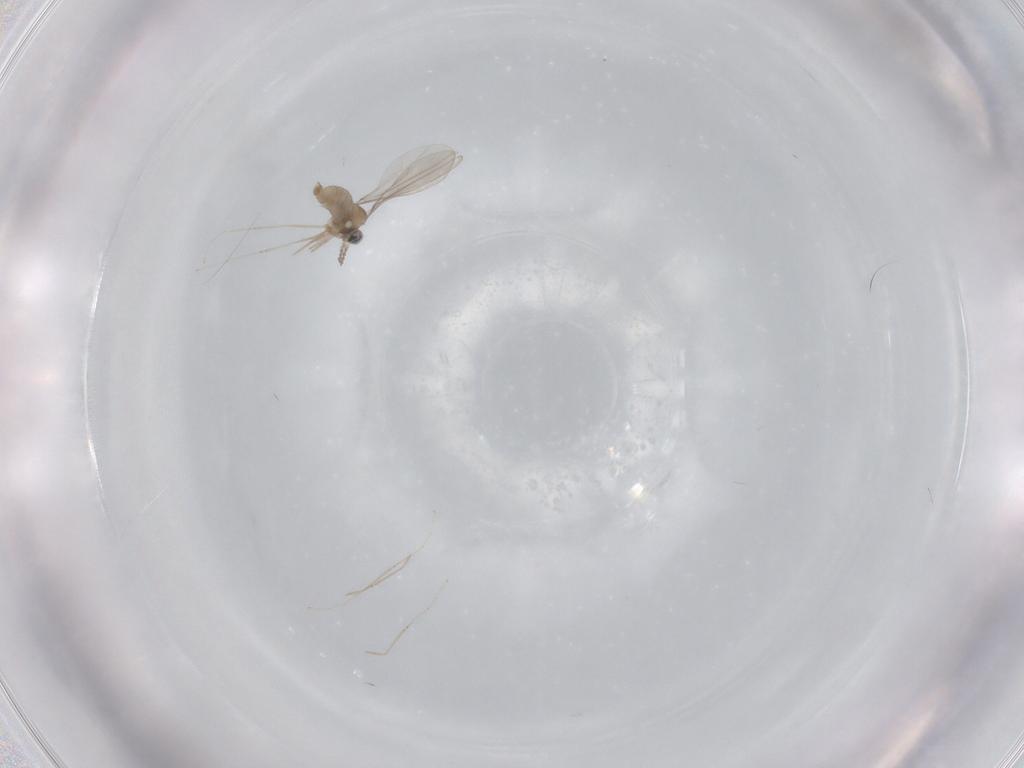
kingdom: Animalia
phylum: Arthropoda
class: Insecta
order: Diptera
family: Cecidomyiidae
